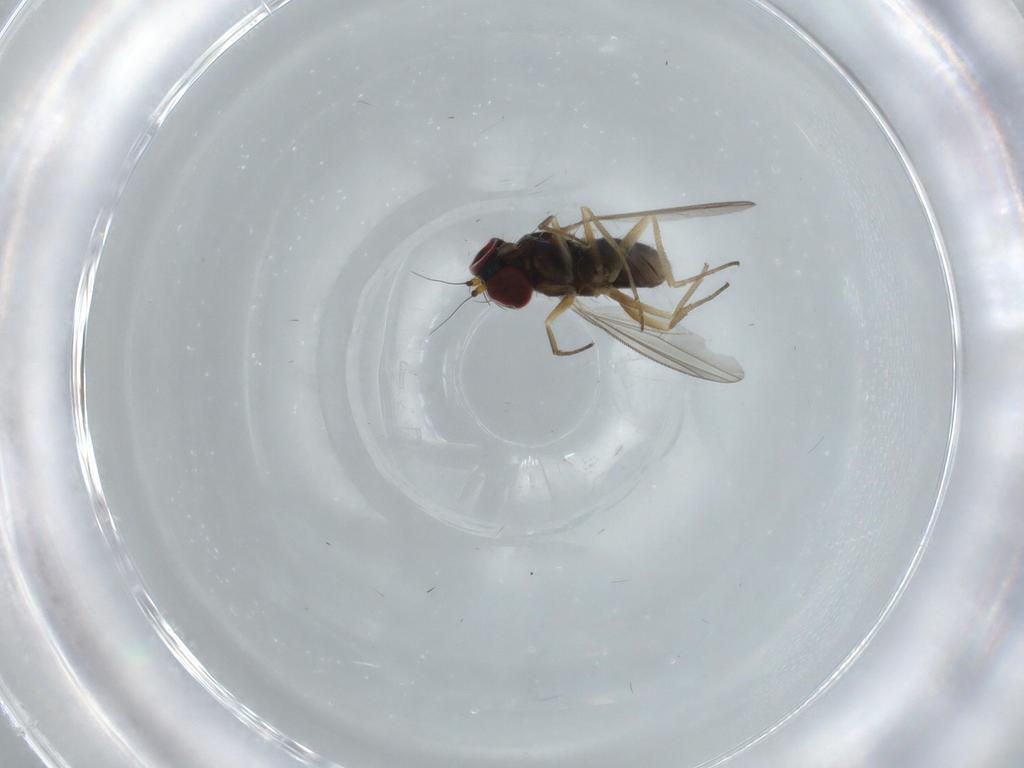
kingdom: Animalia
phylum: Arthropoda
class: Insecta
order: Diptera
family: Dolichopodidae
